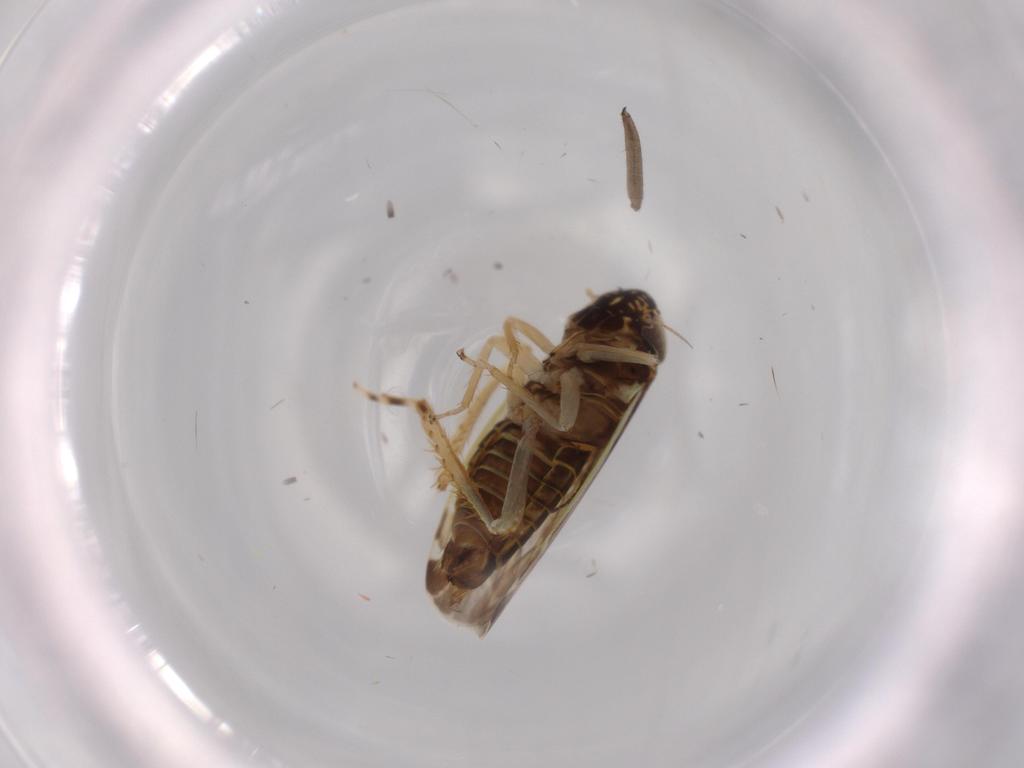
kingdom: Animalia
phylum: Arthropoda
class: Insecta
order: Hemiptera
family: Cicadellidae
